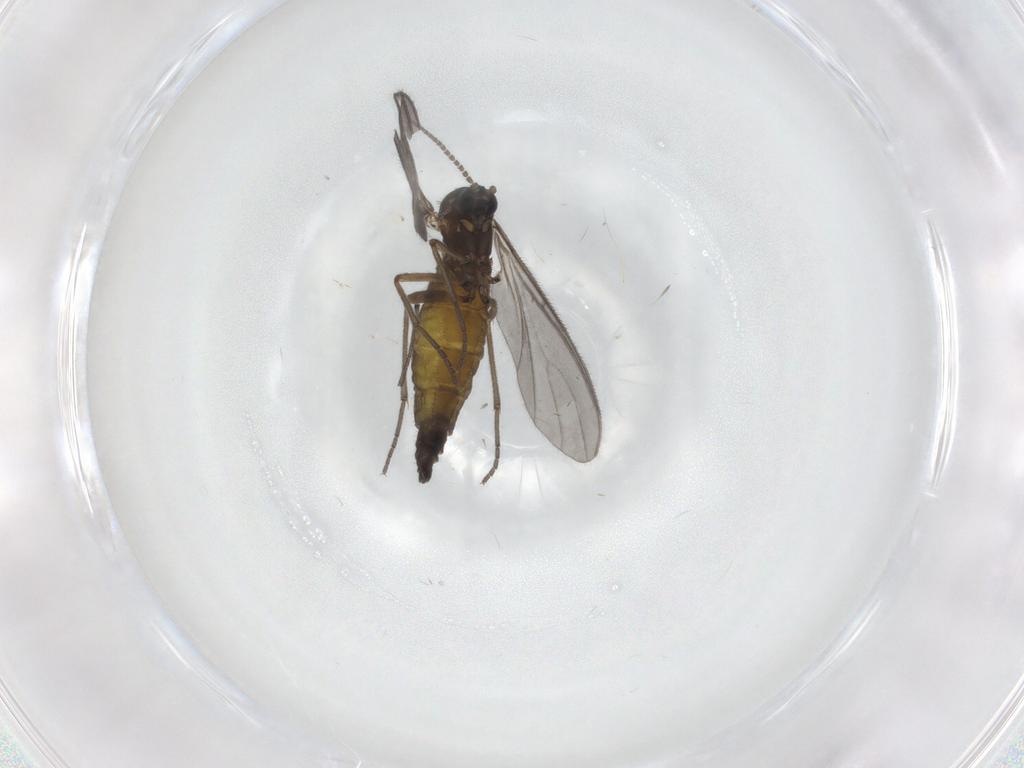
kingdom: Animalia
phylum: Arthropoda
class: Insecta
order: Diptera
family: Sciaridae
